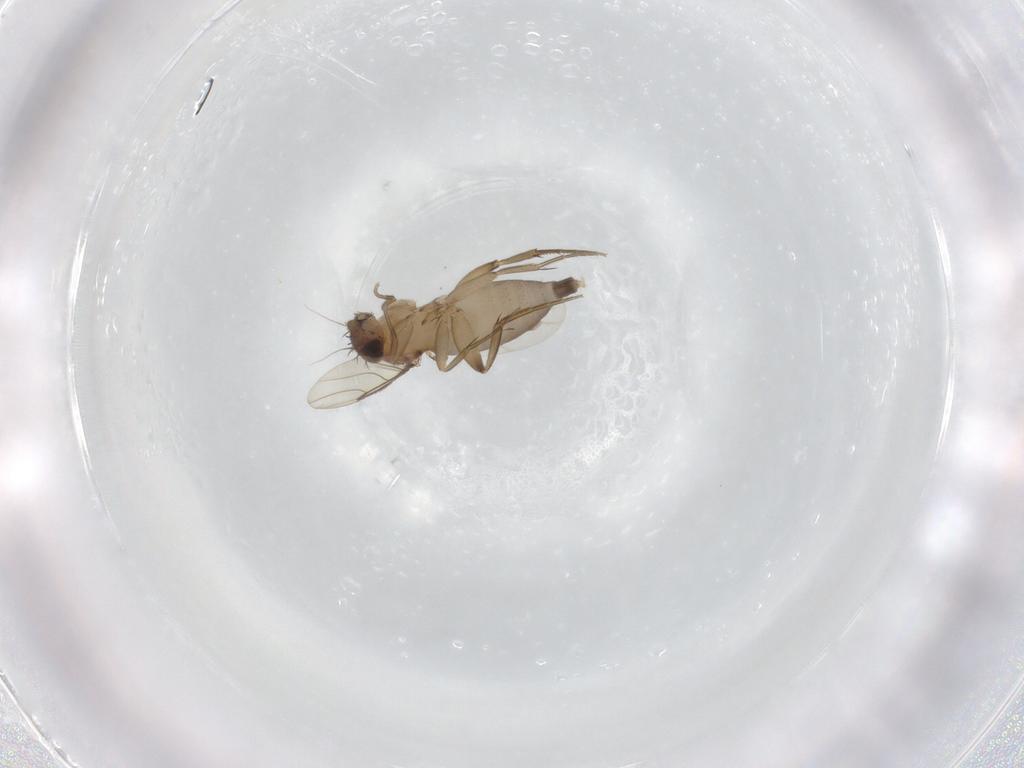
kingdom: Animalia
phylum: Arthropoda
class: Insecta
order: Diptera
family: Phoridae
